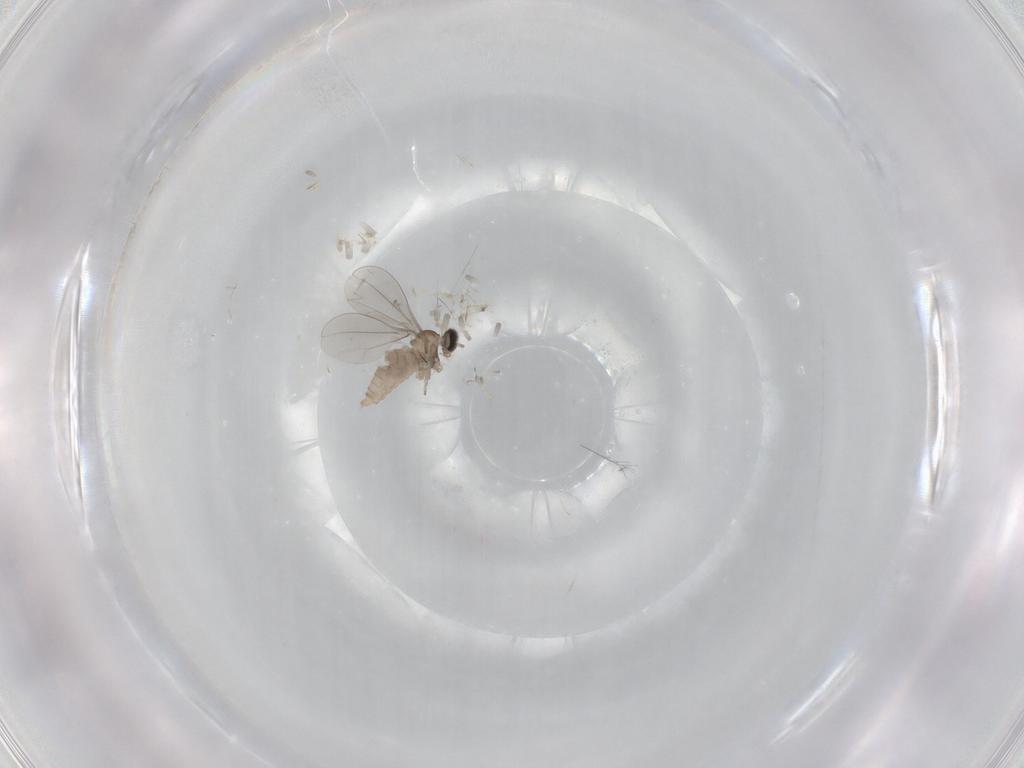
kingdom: Animalia
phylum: Arthropoda
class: Insecta
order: Diptera
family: Cecidomyiidae
